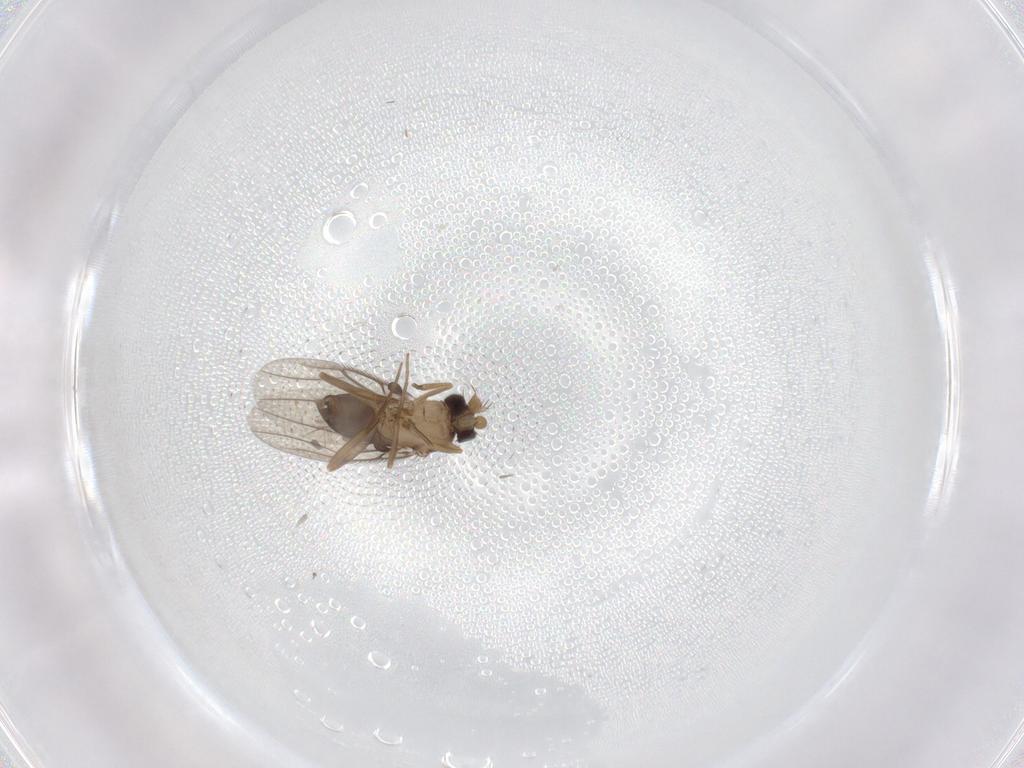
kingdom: Animalia
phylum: Arthropoda
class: Insecta
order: Diptera
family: Phoridae
